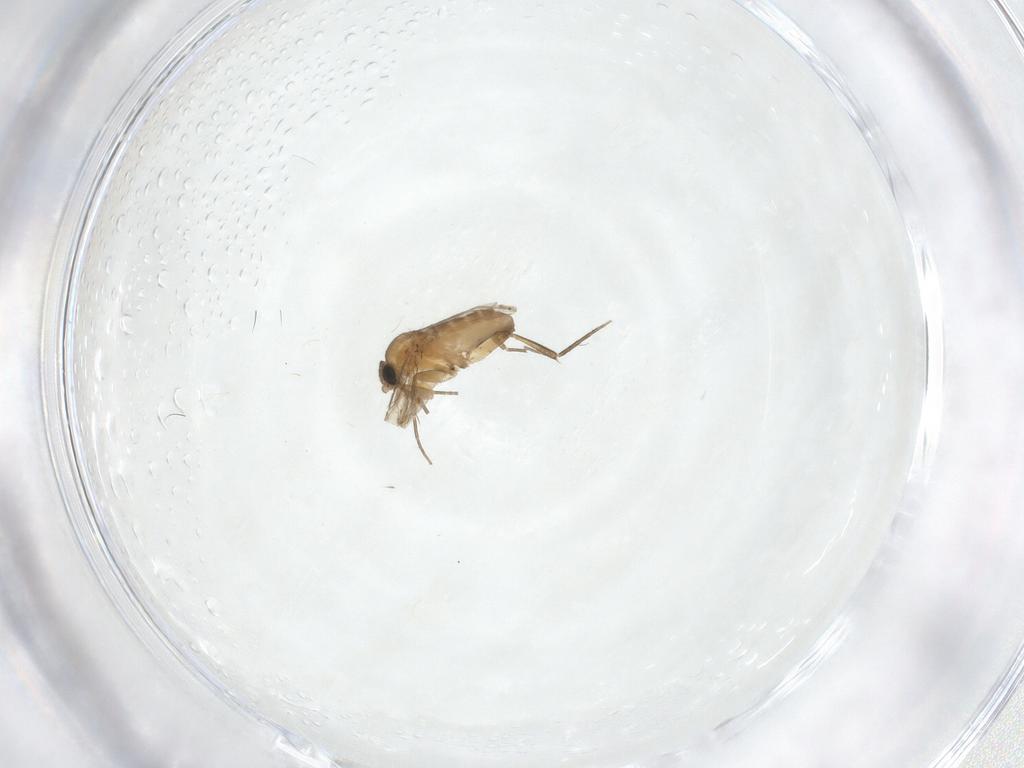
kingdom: Animalia
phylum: Arthropoda
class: Insecta
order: Diptera
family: Phoridae
